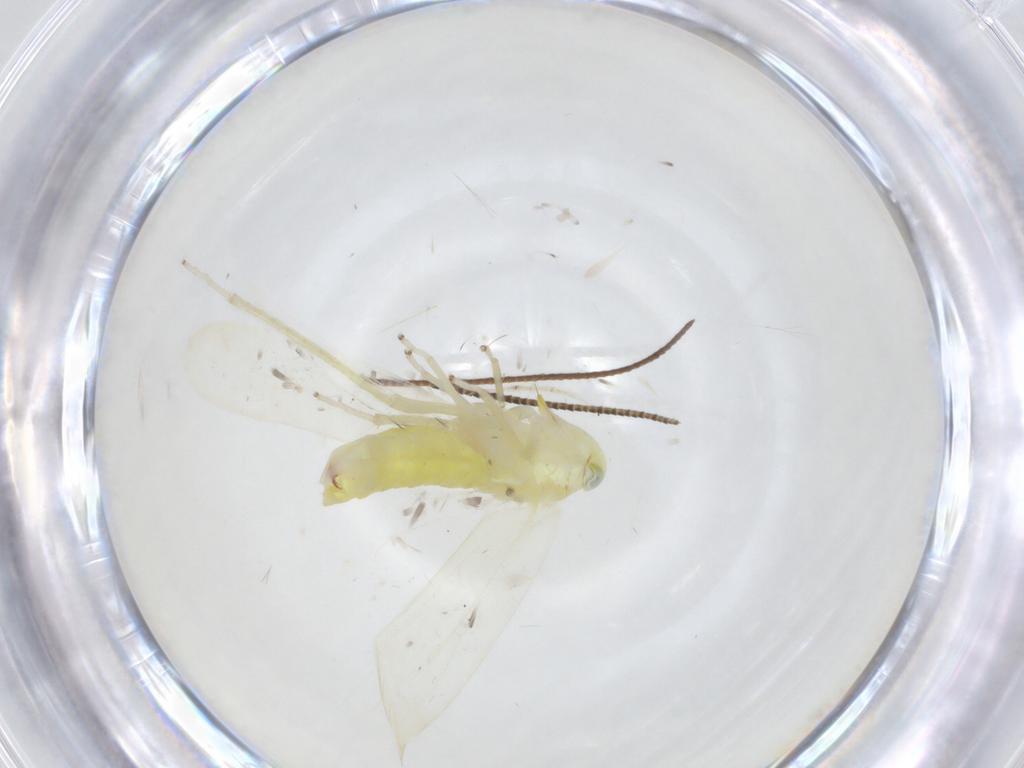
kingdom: Animalia
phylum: Arthropoda
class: Insecta
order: Hemiptera
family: Cicadellidae
